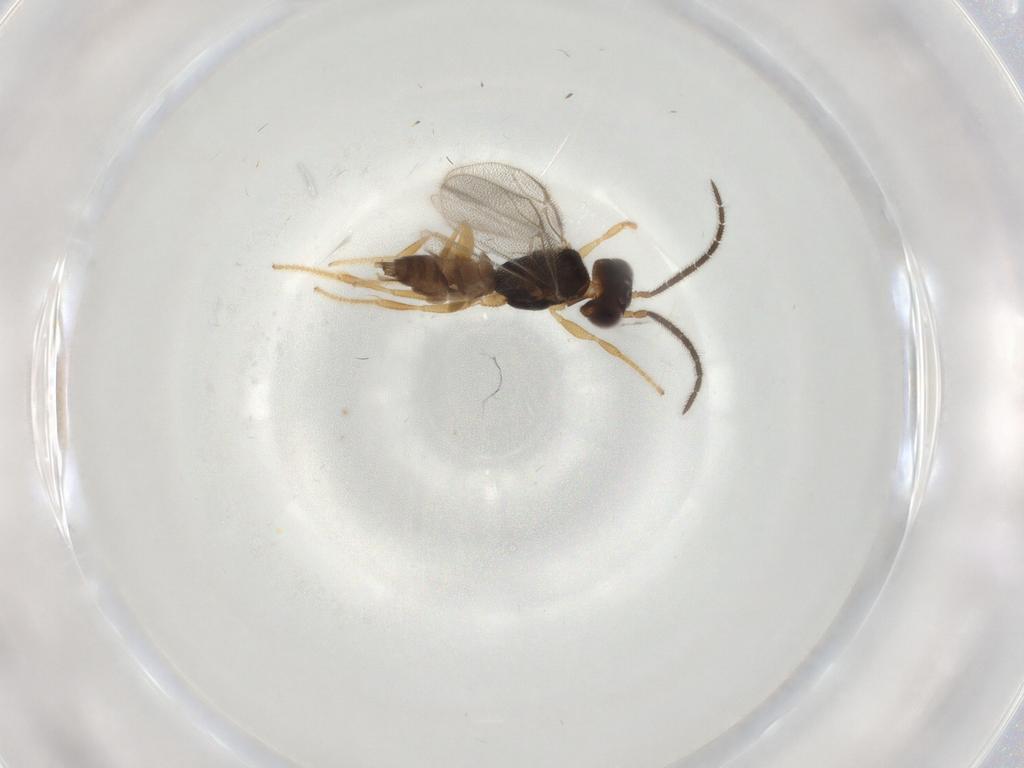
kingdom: Animalia
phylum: Arthropoda
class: Insecta
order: Hymenoptera
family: Dryinidae
